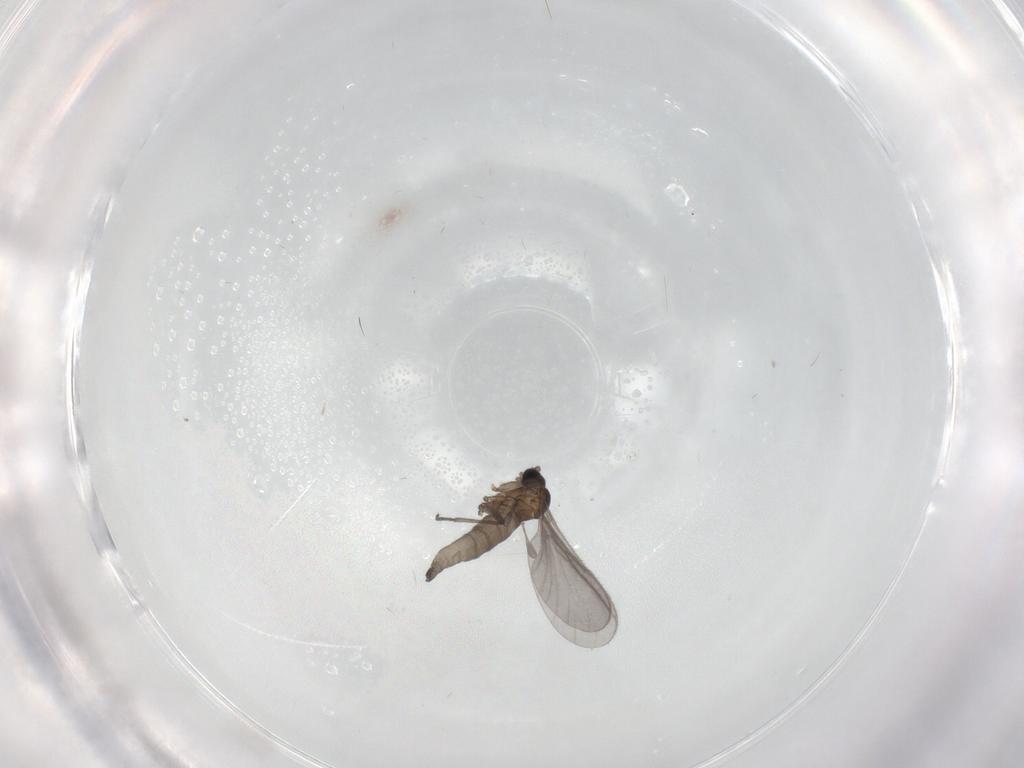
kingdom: Animalia
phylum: Arthropoda
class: Insecta
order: Diptera
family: Sciaridae
